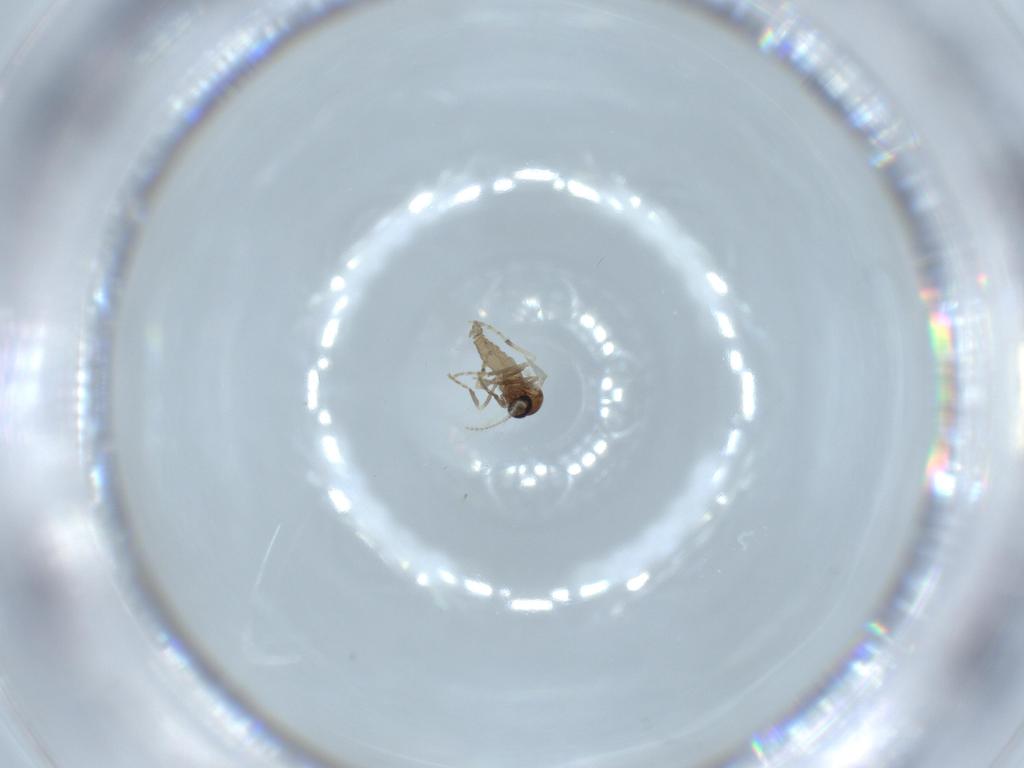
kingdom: Animalia
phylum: Arthropoda
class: Insecta
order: Diptera
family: Ceratopogonidae
